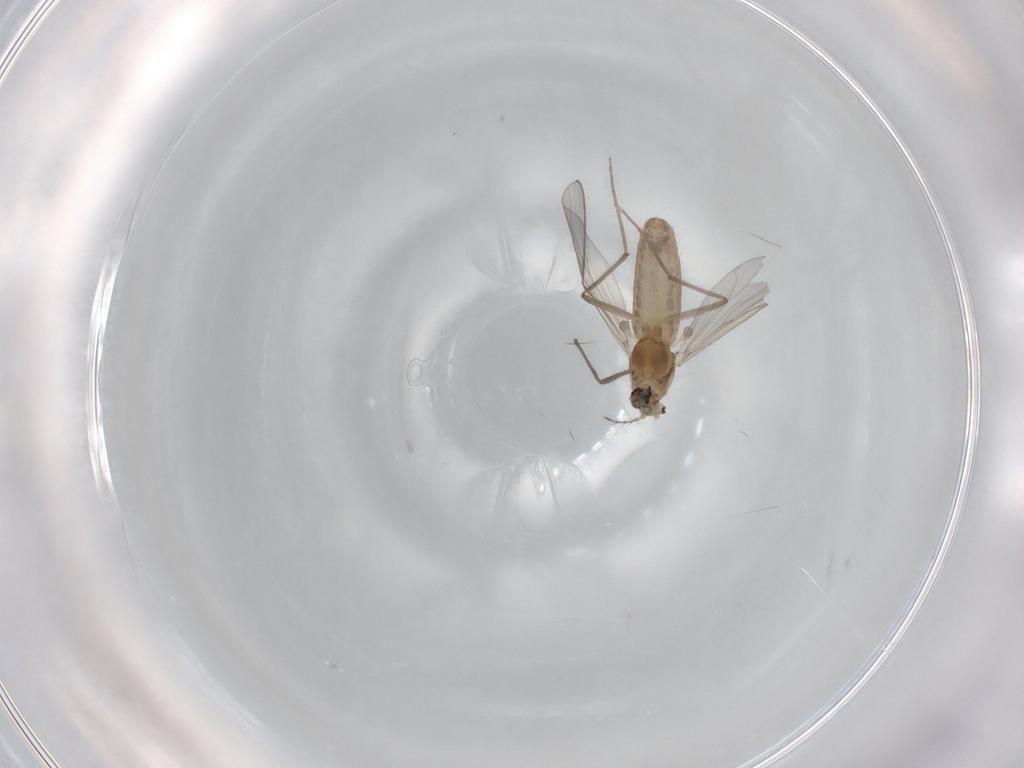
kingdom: Animalia
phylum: Arthropoda
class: Insecta
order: Diptera
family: Chironomidae
